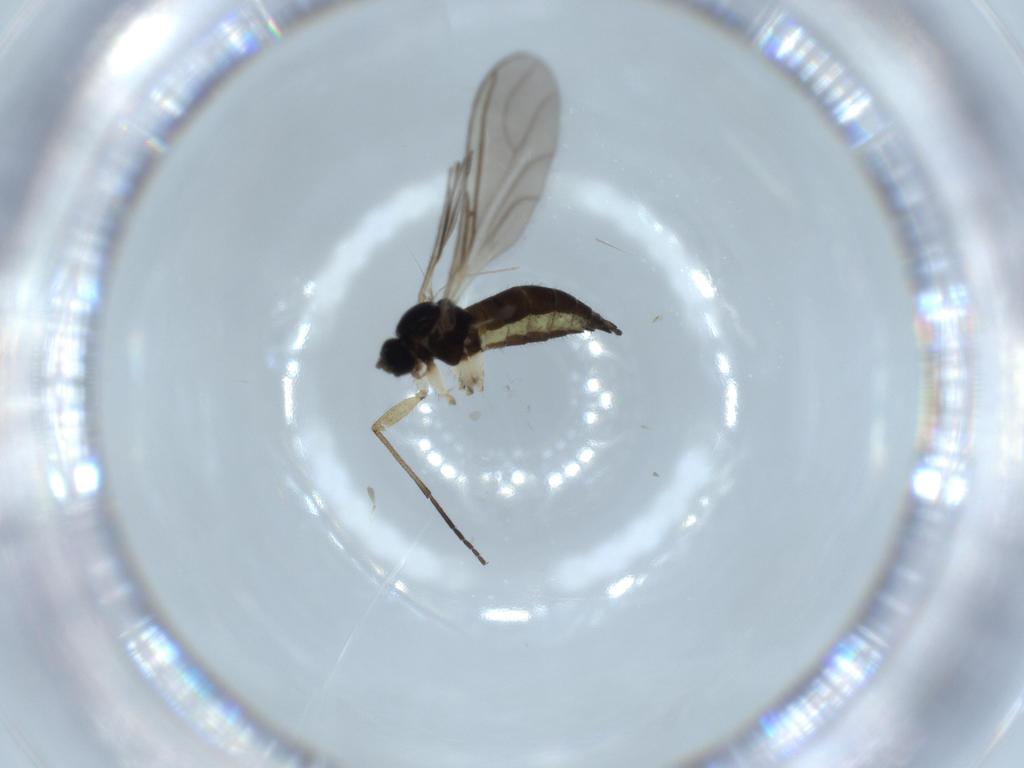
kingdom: Animalia
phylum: Arthropoda
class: Insecta
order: Diptera
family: Sciaridae
